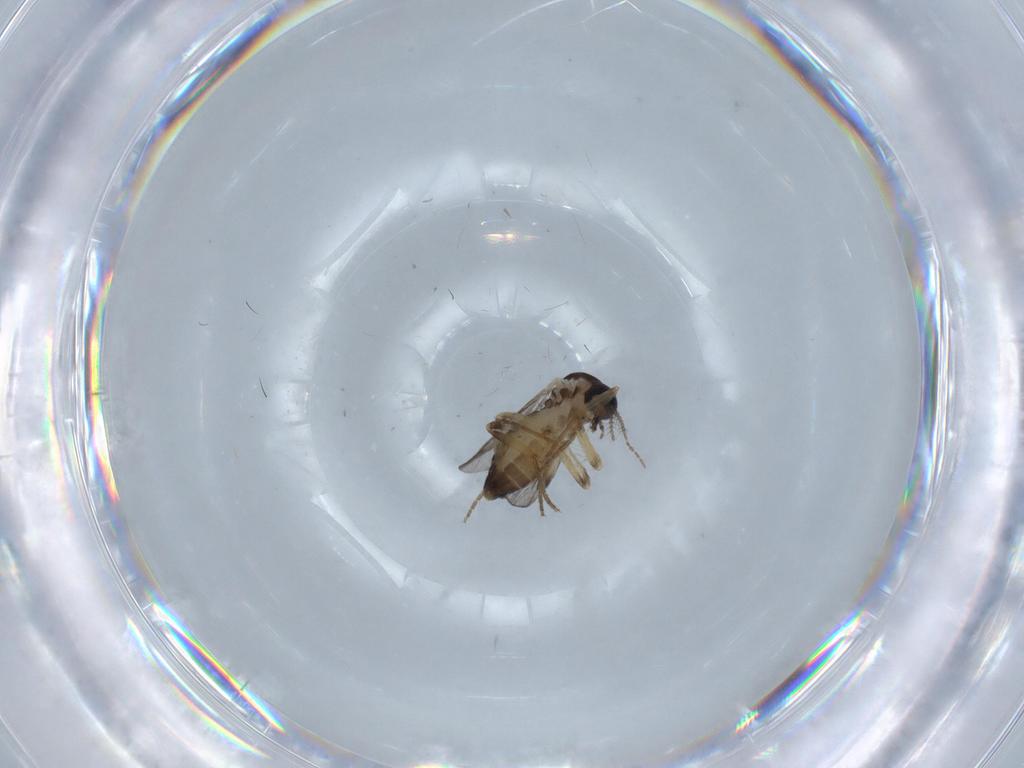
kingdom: Animalia
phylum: Arthropoda
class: Insecta
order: Diptera
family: Ceratopogonidae
